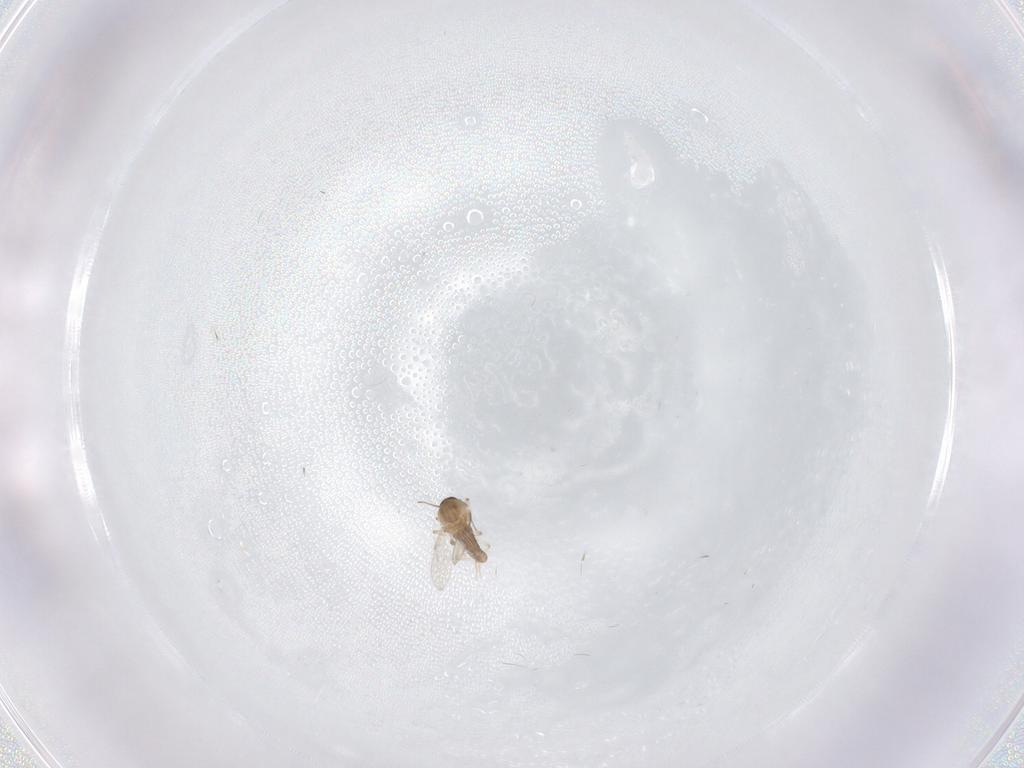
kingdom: Animalia
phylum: Arthropoda
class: Insecta
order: Diptera
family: Ceratopogonidae
